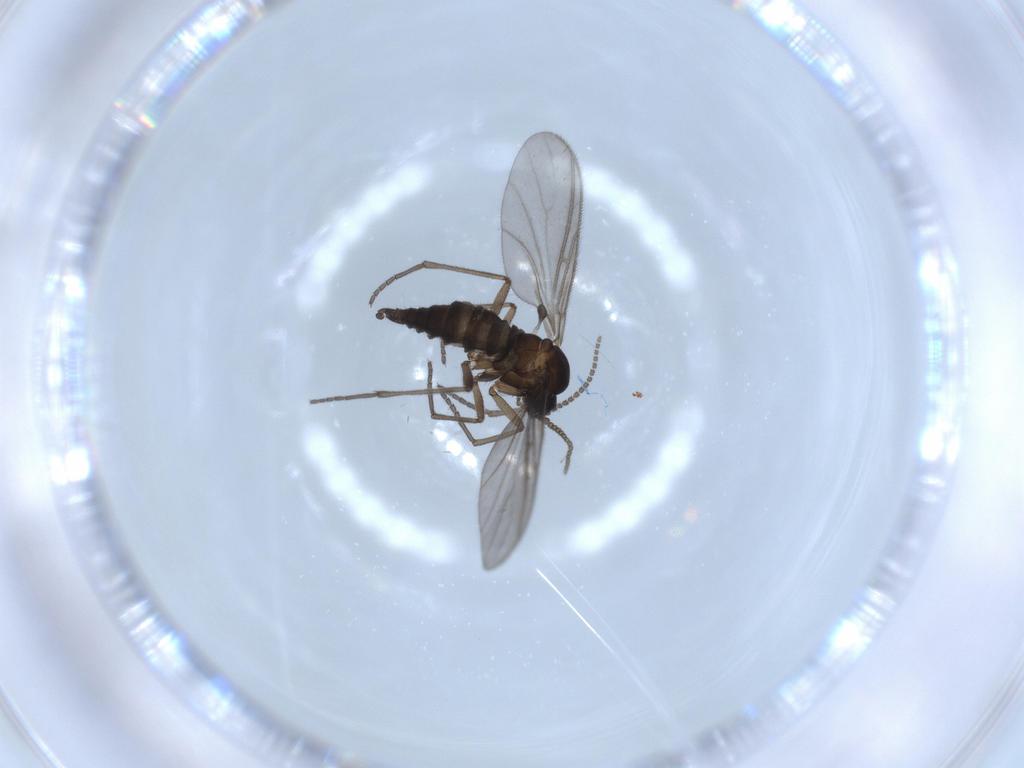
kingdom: Animalia
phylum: Arthropoda
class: Insecta
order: Diptera
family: Sciaridae
